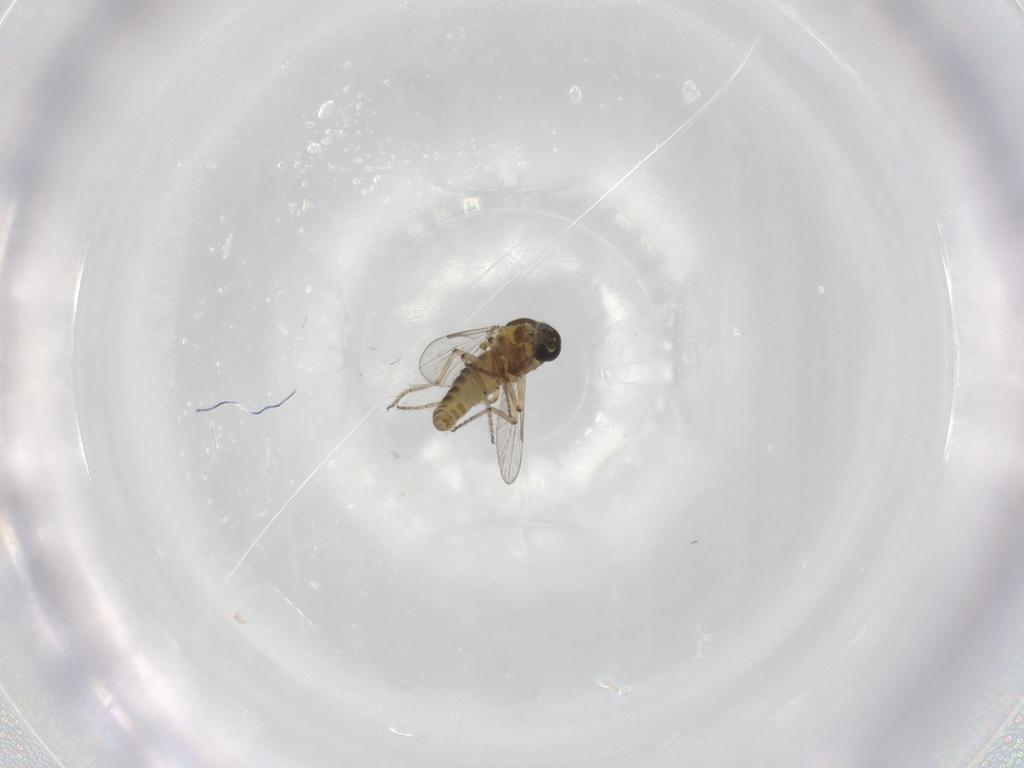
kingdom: Animalia
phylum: Arthropoda
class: Insecta
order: Diptera
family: Ceratopogonidae
